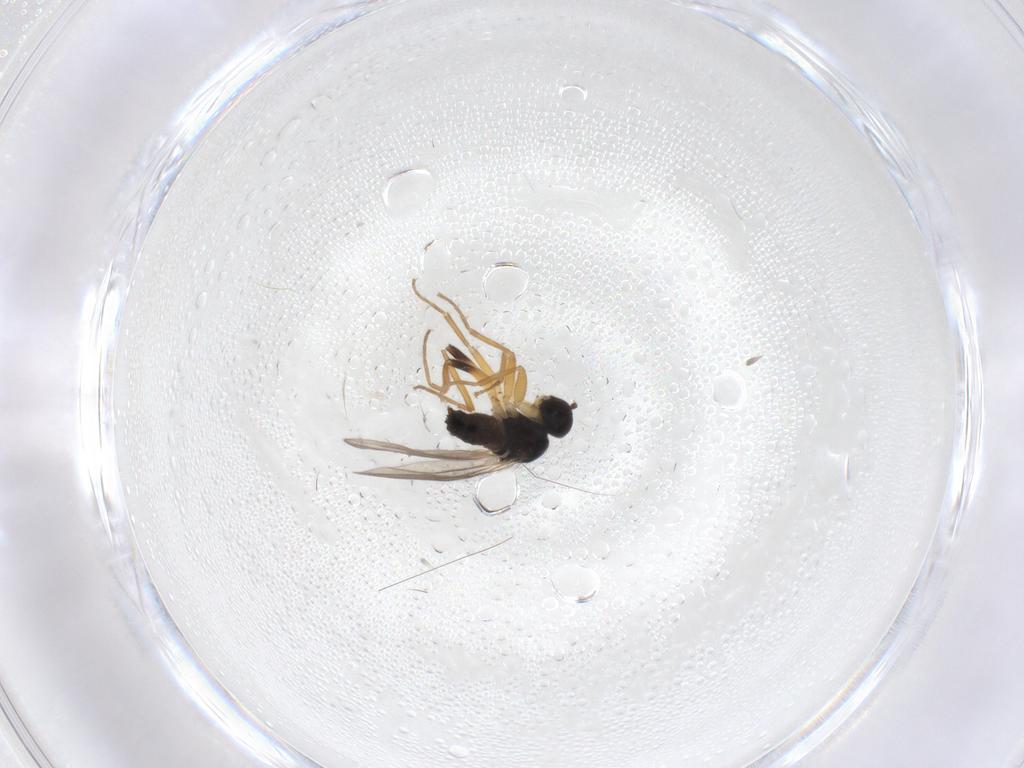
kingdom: Animalia
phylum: Arthropoda
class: Insecta
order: Diptera
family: Hybotidae
